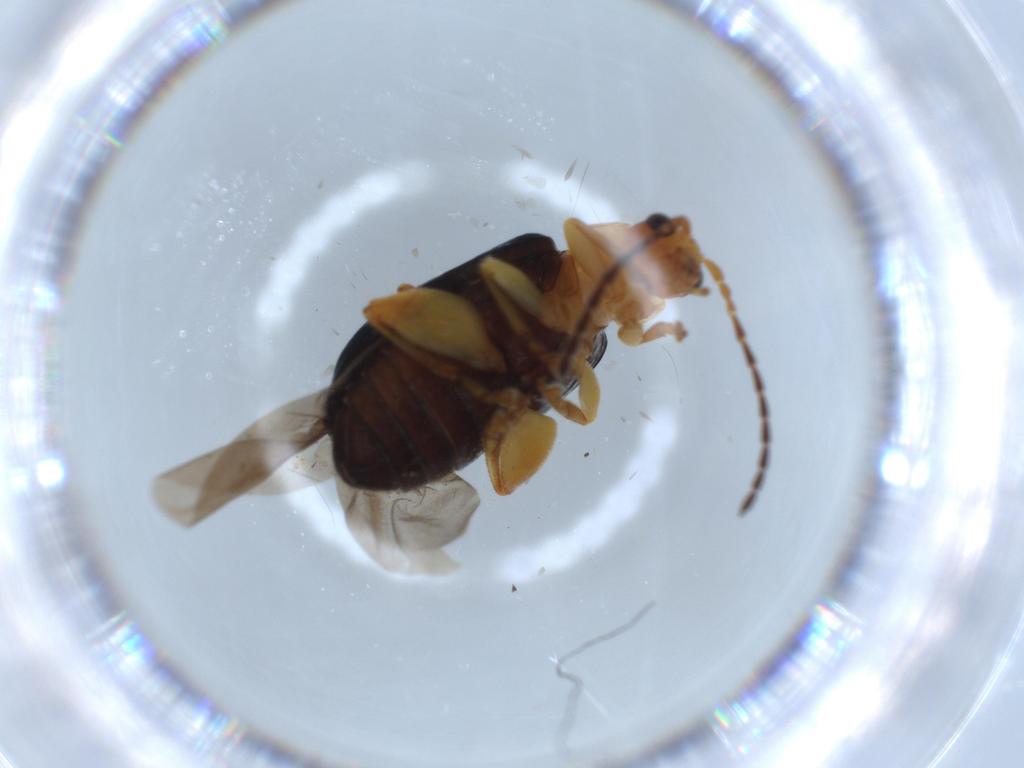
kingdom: Animalia
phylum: Arthropoda
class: Insecta
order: Coleoptera
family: Chrysomelidae
